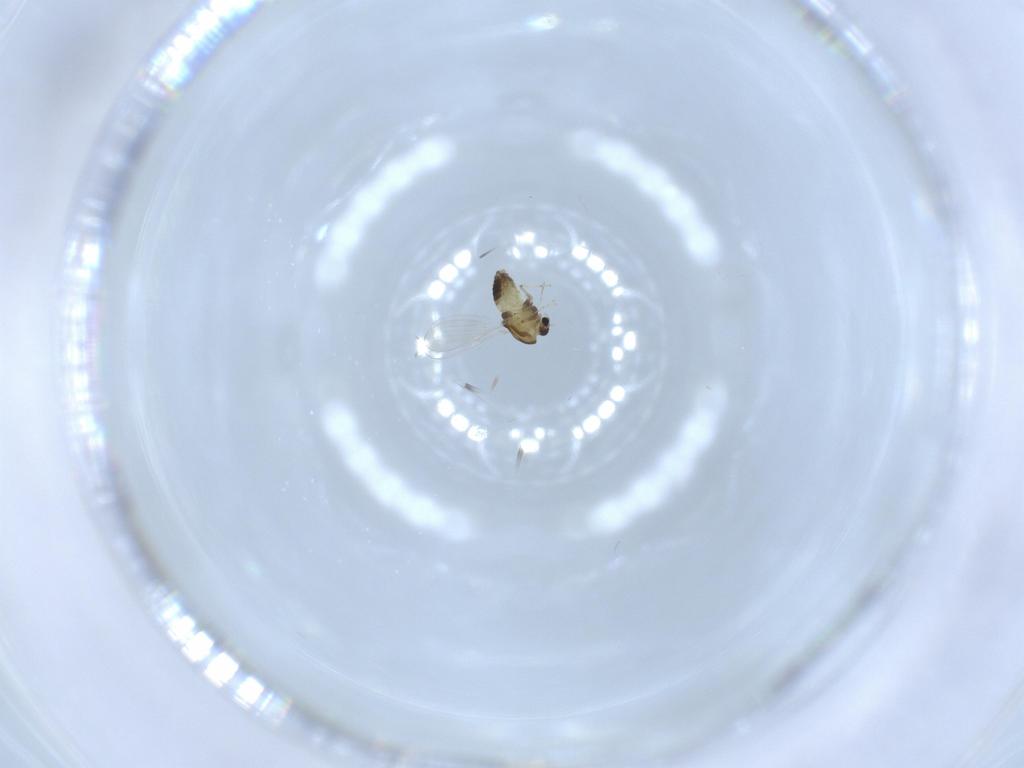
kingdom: Animalia
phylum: Arthropoda
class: Insecta
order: Diptera
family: Chironomidae
